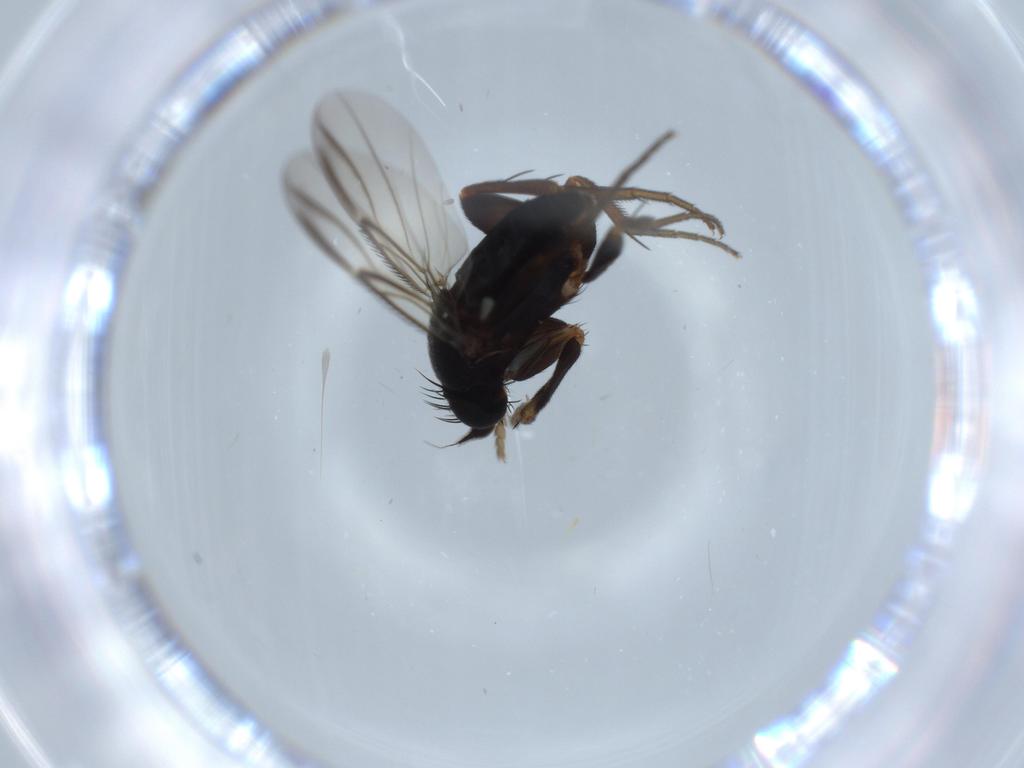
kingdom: Animalia
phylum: Arthropoda
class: Insecta
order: Diptera
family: Phoridae
